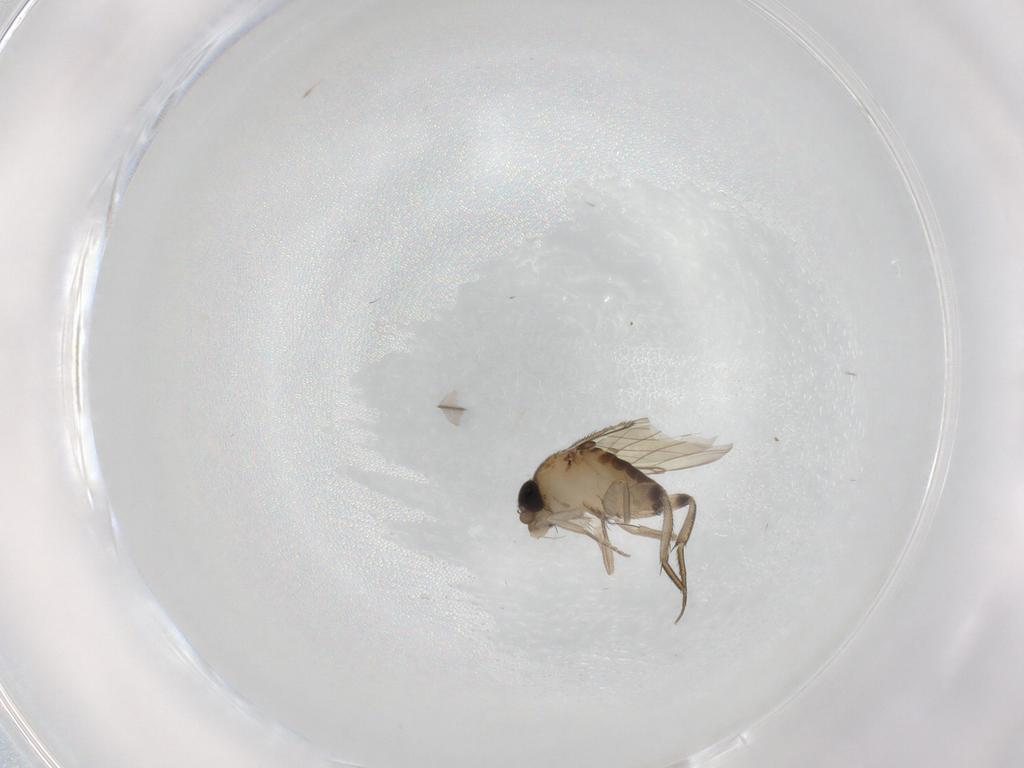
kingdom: Animalia
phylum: Arthropoda
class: Insecta
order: Diptera
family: Phoridae
